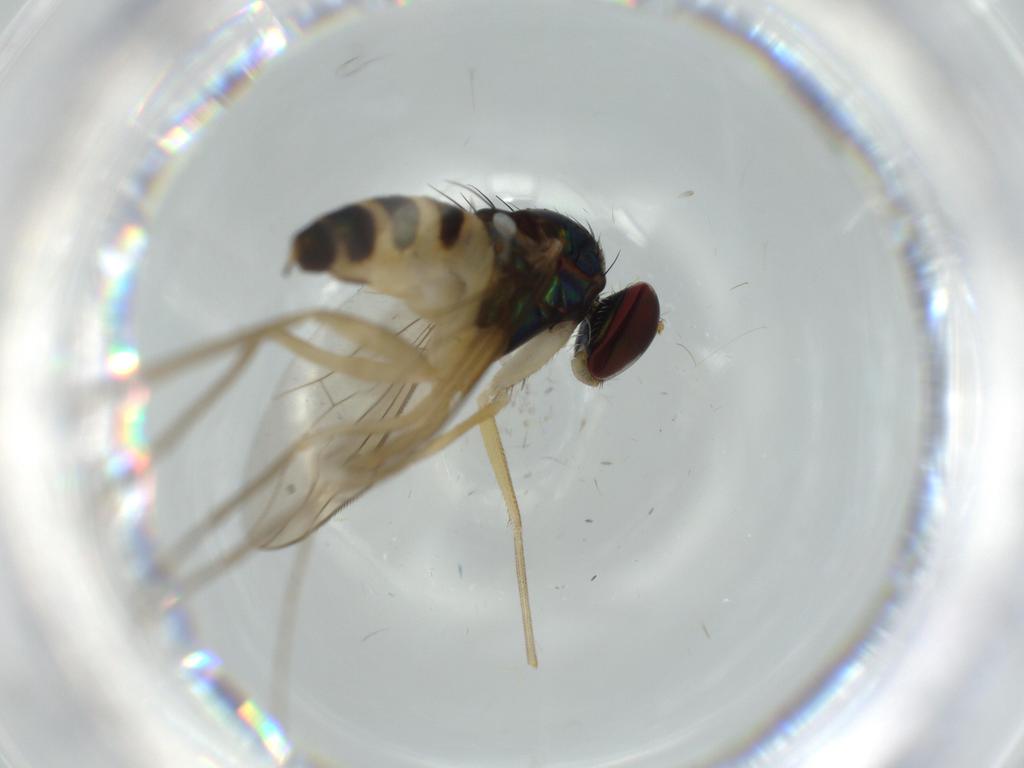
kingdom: Animalia
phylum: Arthropoda
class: Insecta
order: Diptera
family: Dolichopodidae
